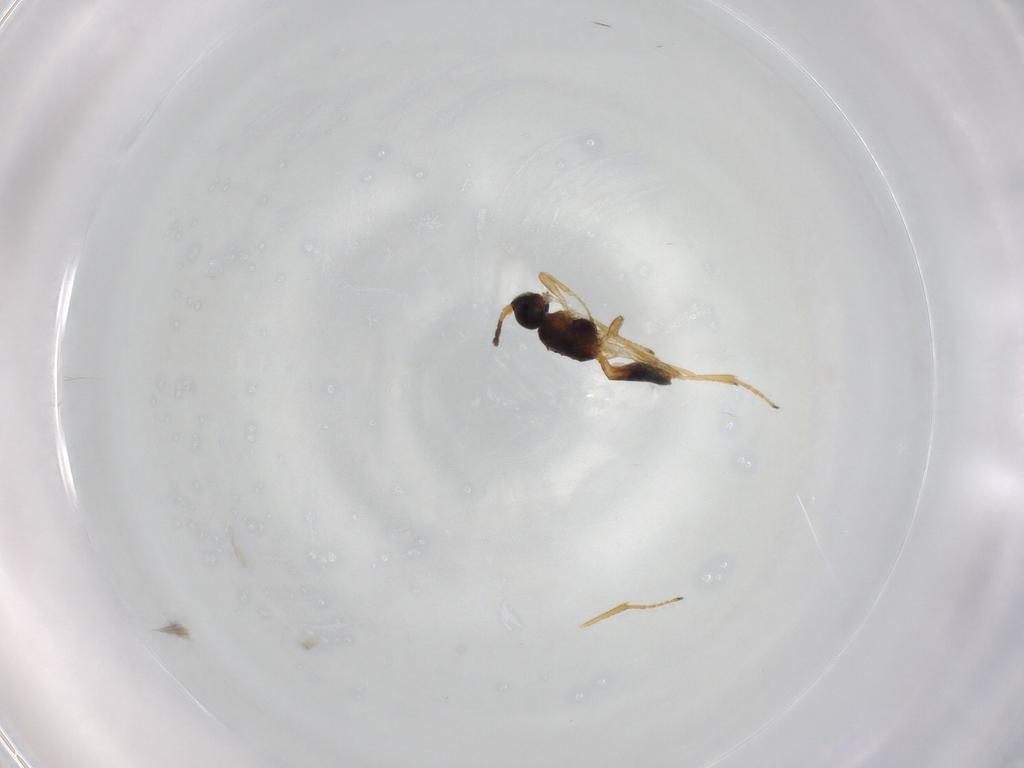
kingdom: Animalia
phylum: Arthropoda
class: Insecta
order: Hymenoptera
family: Braconidae
